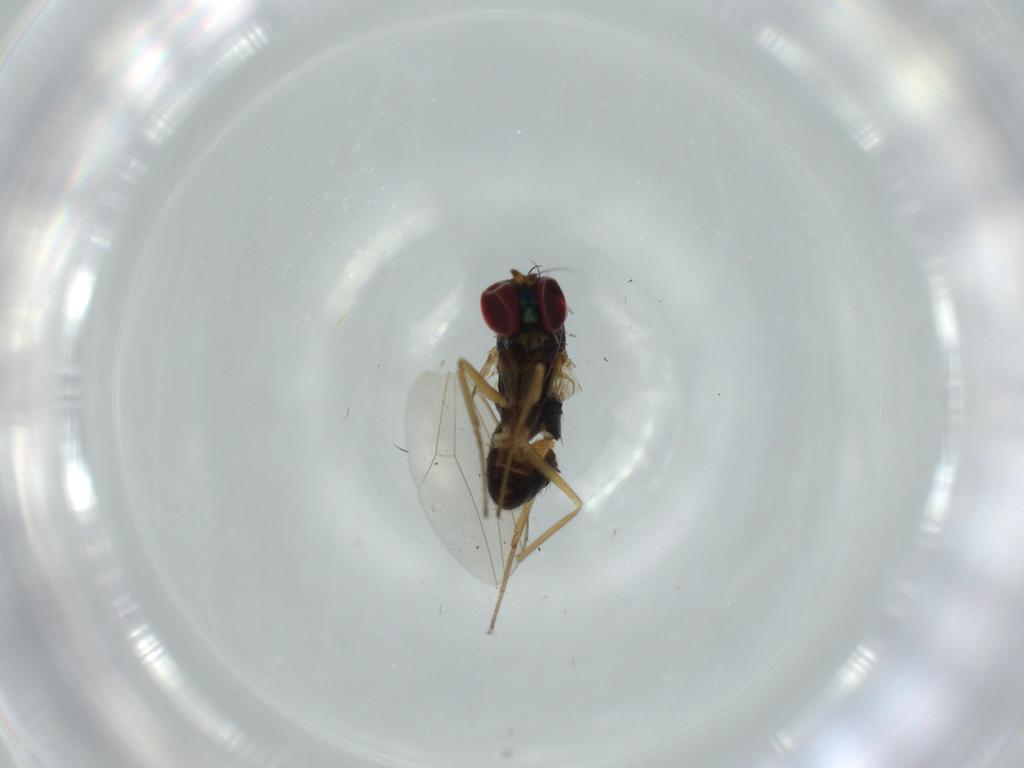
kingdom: Animalia
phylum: Arthropoda
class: Insecta
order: Diptera
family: Dolichopodidae
